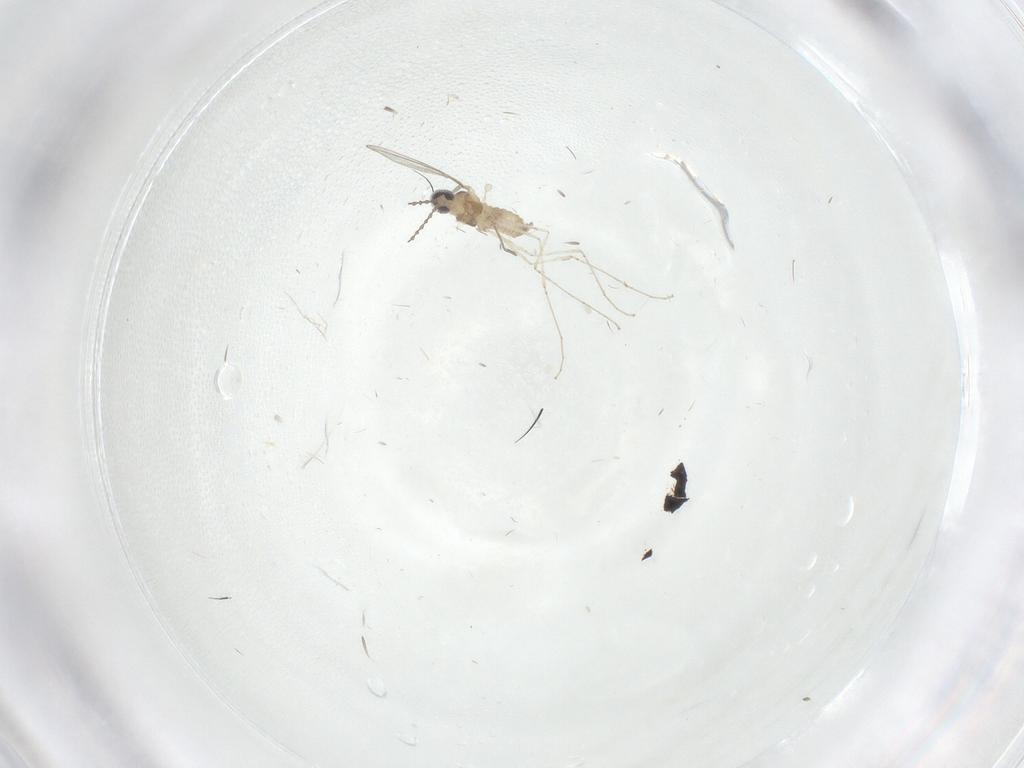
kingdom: Animalia
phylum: Arthropoda
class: Insecta
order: Diptera
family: Cecidomyiidae
